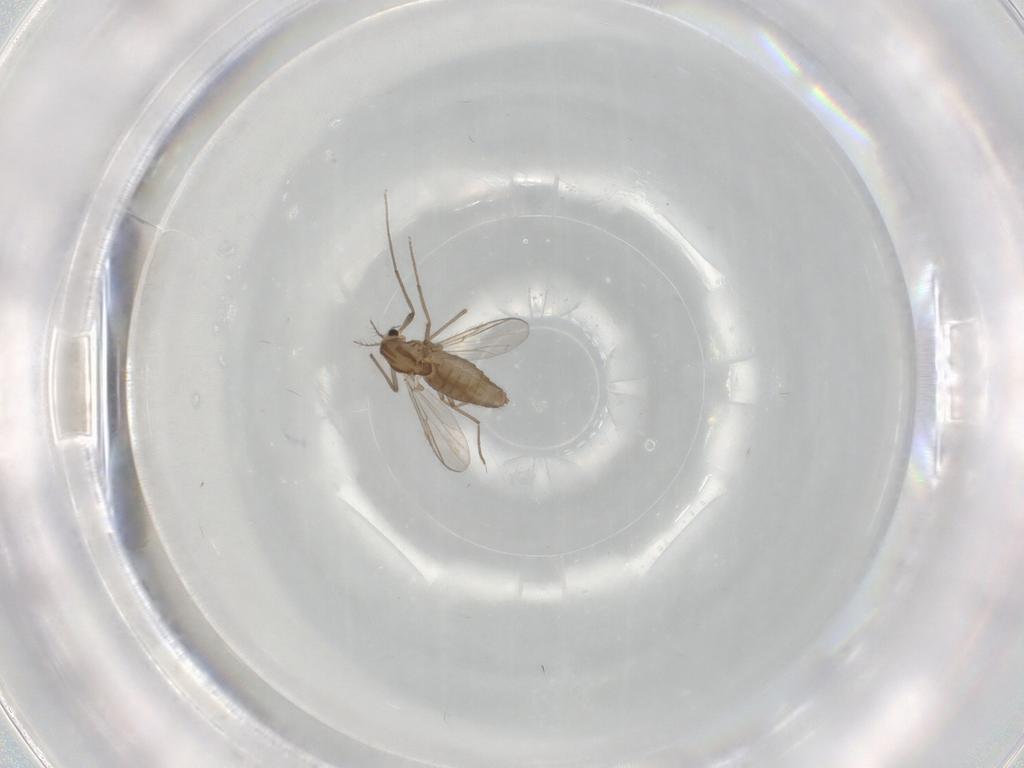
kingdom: Animalia
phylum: Arthropoda
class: Insecta
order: Diptera
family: Chironomidae
